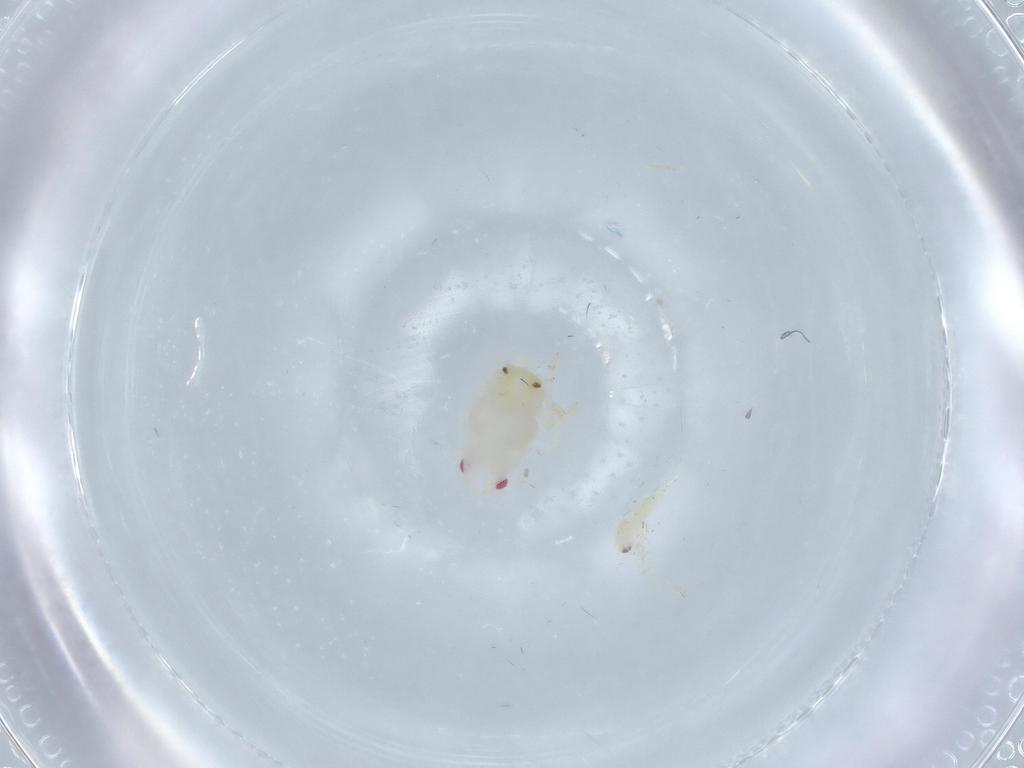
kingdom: Animalia
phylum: Arthropoda
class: Insecta
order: Hemiptera
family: Aleyrodidae
